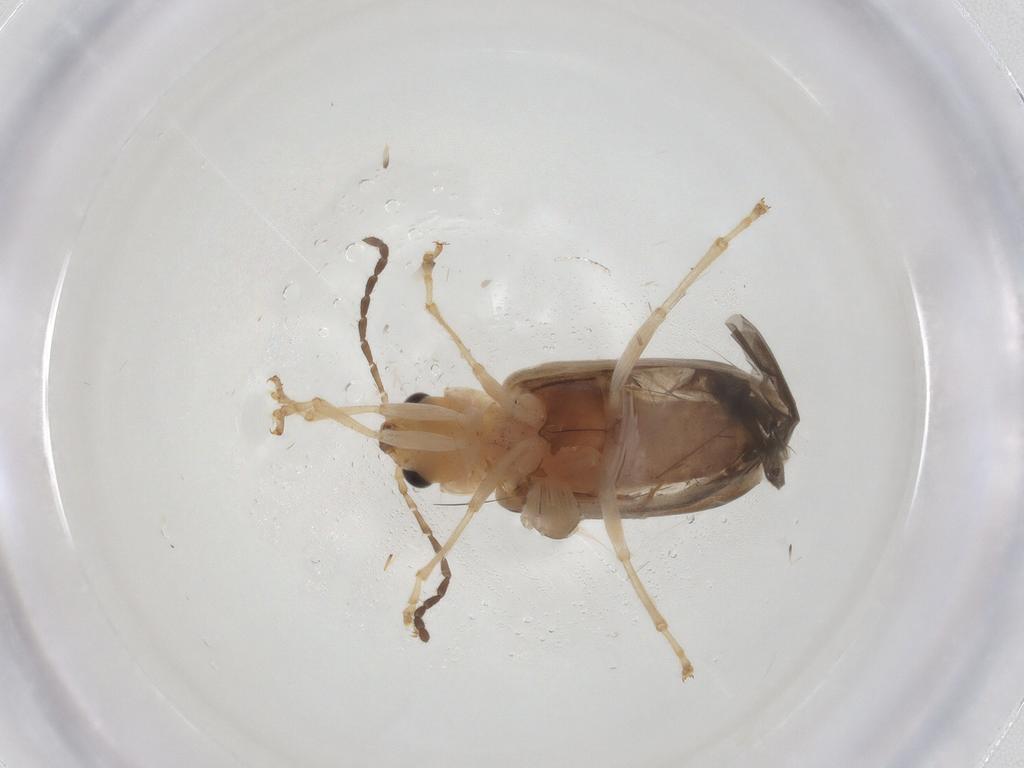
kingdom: Animalia
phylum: Arthropoda
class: Insecta
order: Coleoptera
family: Chrysomelidae
